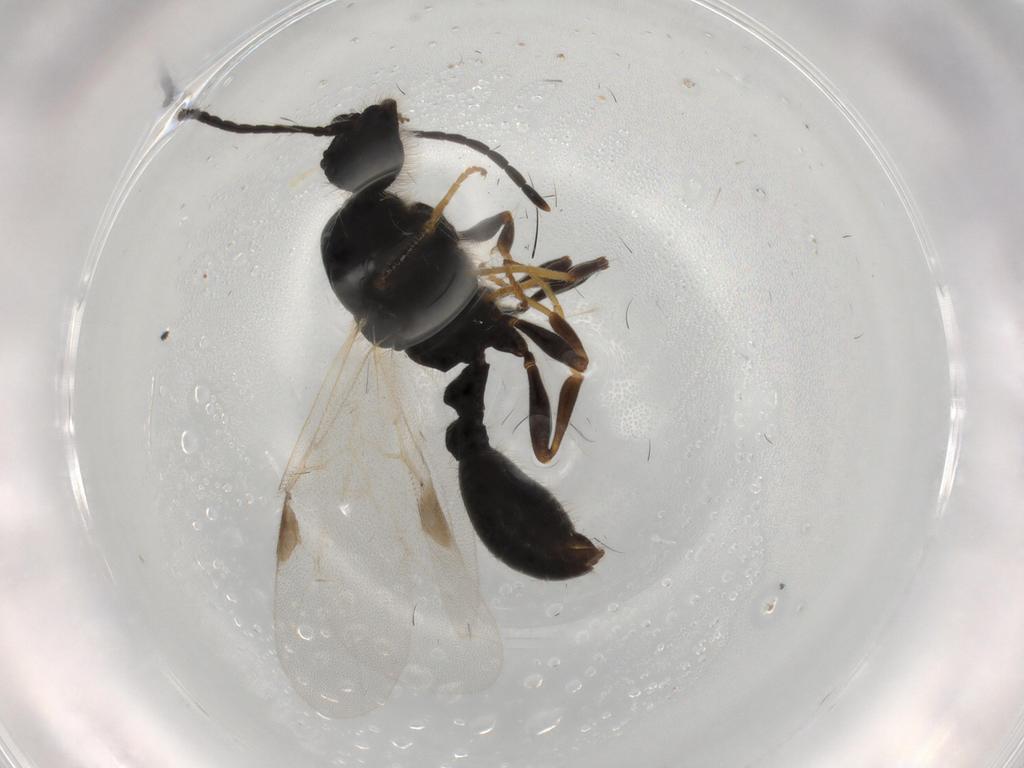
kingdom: Animalia
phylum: Arthropoda
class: Insecta
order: Hymenoptera
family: Formicidae
